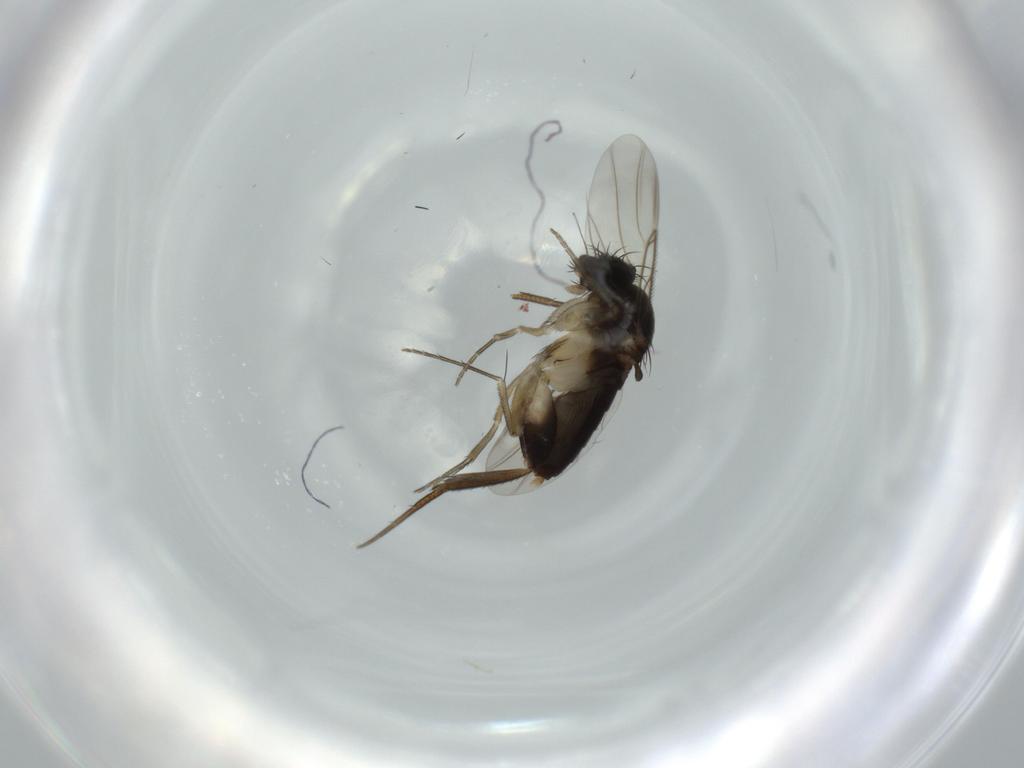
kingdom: Animalia
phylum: Arthropoda
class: Insecta
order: Diptera
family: Phoridae
